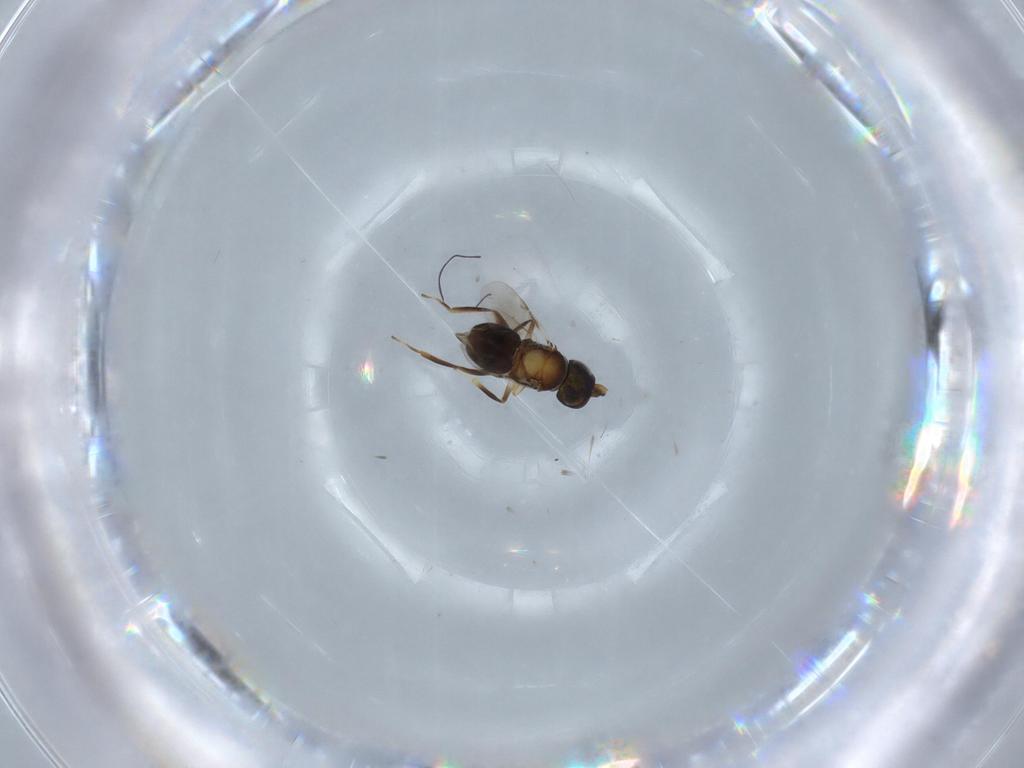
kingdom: Animalia
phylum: Arthropoda
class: Insecta
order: Hymenoptera
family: Encyrtidae
